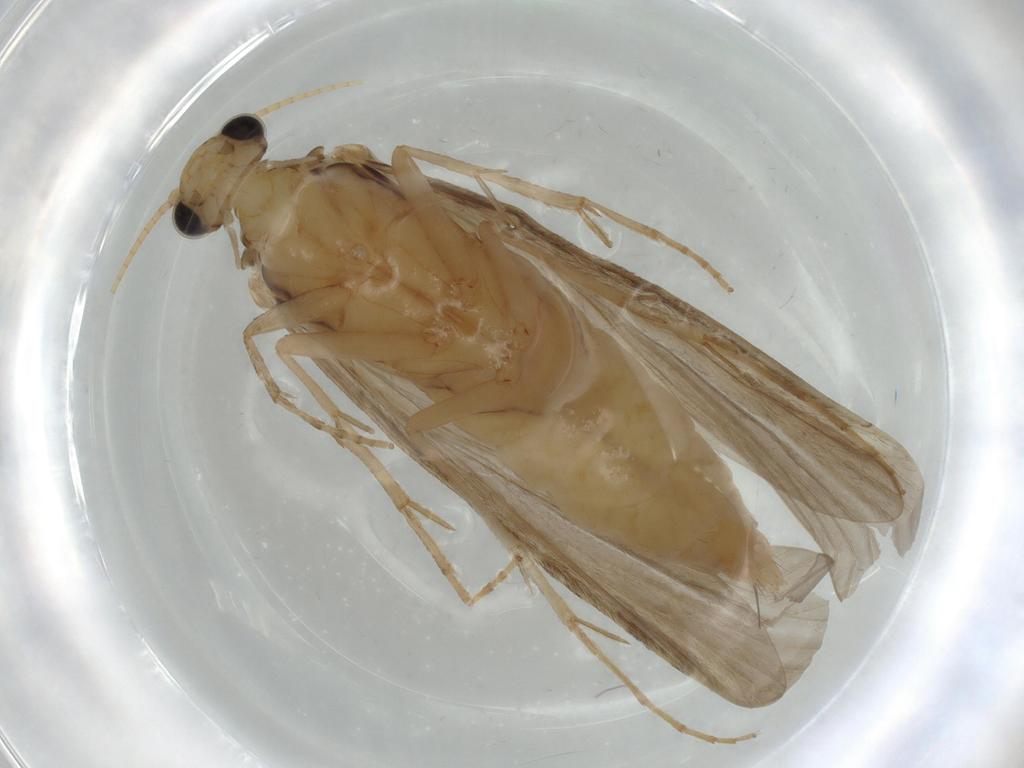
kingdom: Animalia
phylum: Arthropoda
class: Insecta
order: Trichoptera
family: Ecnomidae
